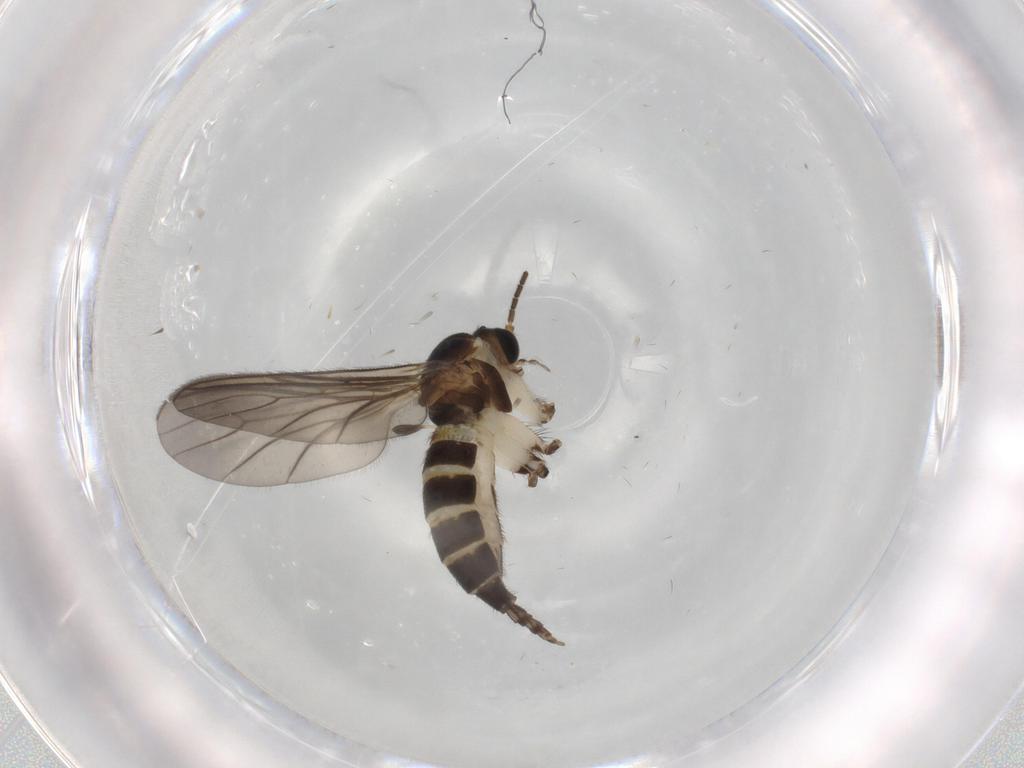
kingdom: Animalia
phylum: Arthropoda
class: Insecta
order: Diptera
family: Sciaridae
